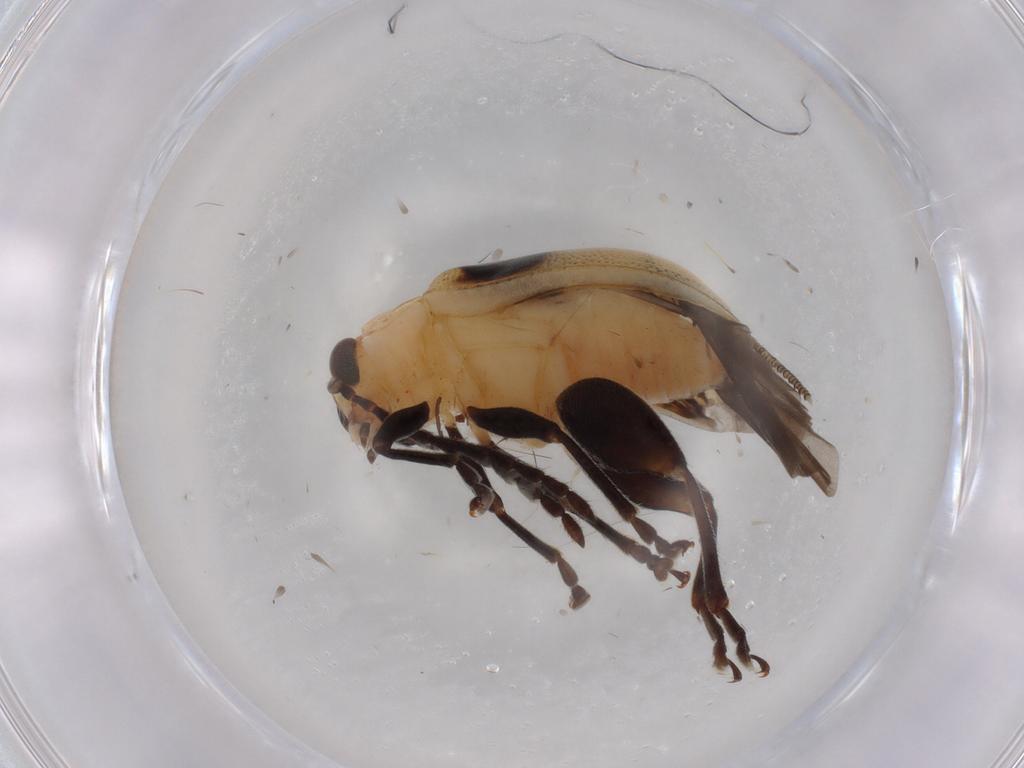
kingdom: Animalia
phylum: Arthropoda
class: Insecta
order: Coleoptera
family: Chrysomelidae
